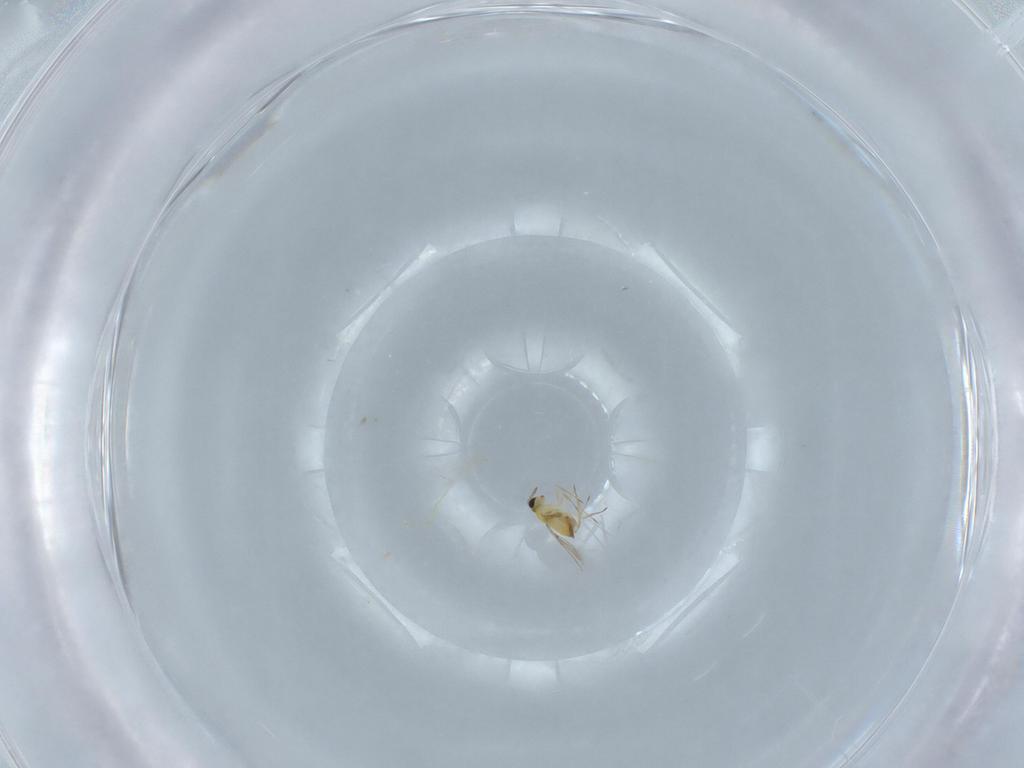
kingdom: Animalia
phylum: Arthropoda
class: Insecta
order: Hymenoptera
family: Trichogrammatidae
